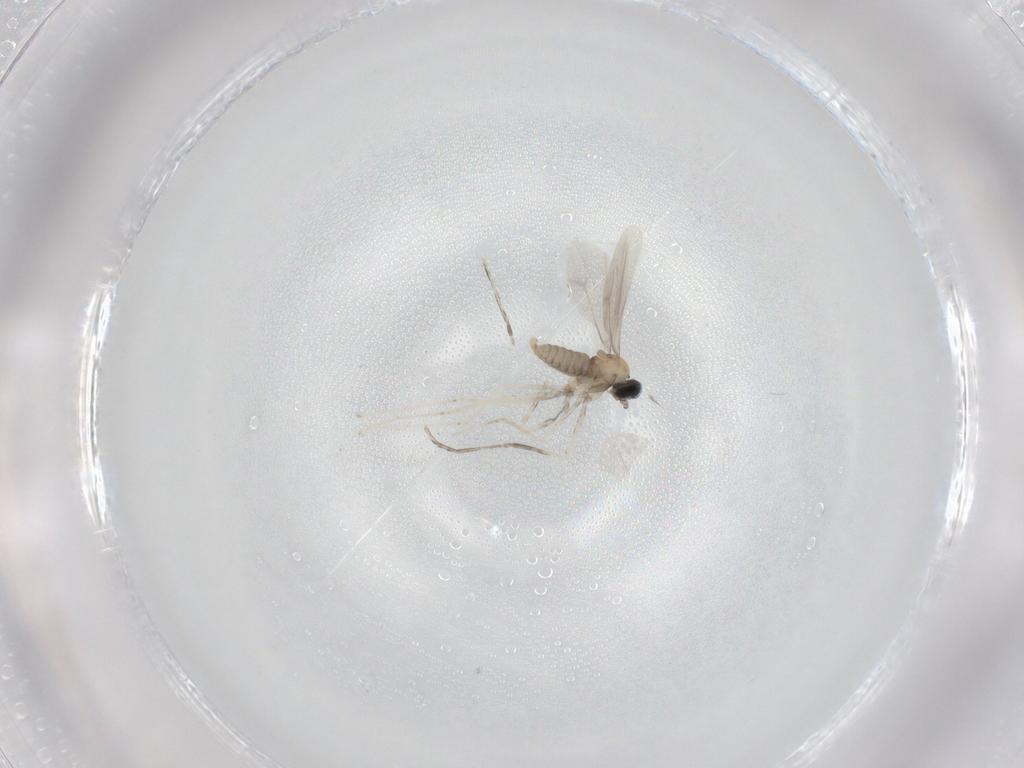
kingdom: Animalia
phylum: Arthropoda
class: Insecta
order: Diptera
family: Cecidomyiidae
